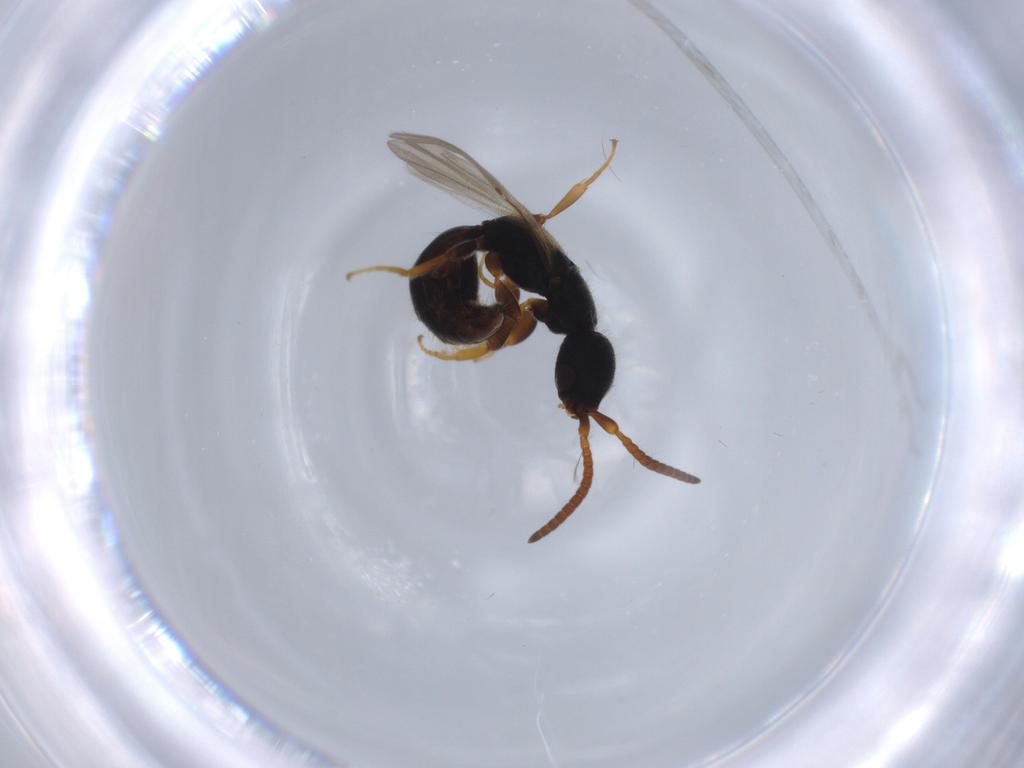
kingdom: Animalia
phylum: Arthropoda
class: Insecta
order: Hymenoptera
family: Bethylidae
